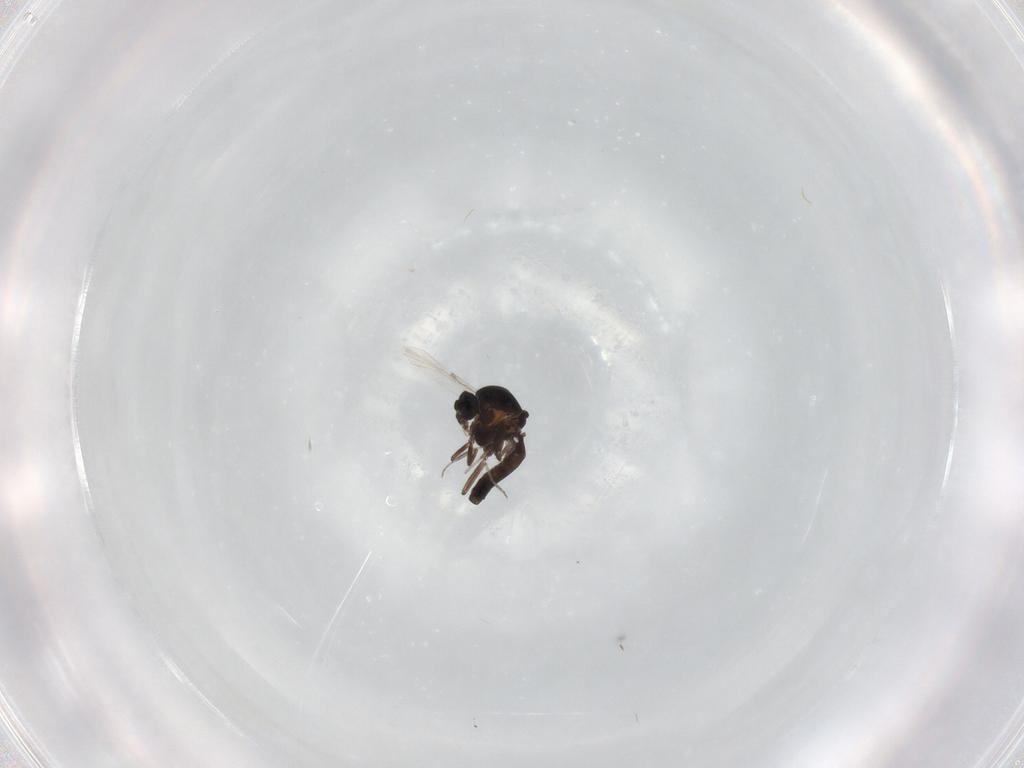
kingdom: Animalia
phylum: Arthropoda
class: Insecta
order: Diptera
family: Ceratopogonidae
